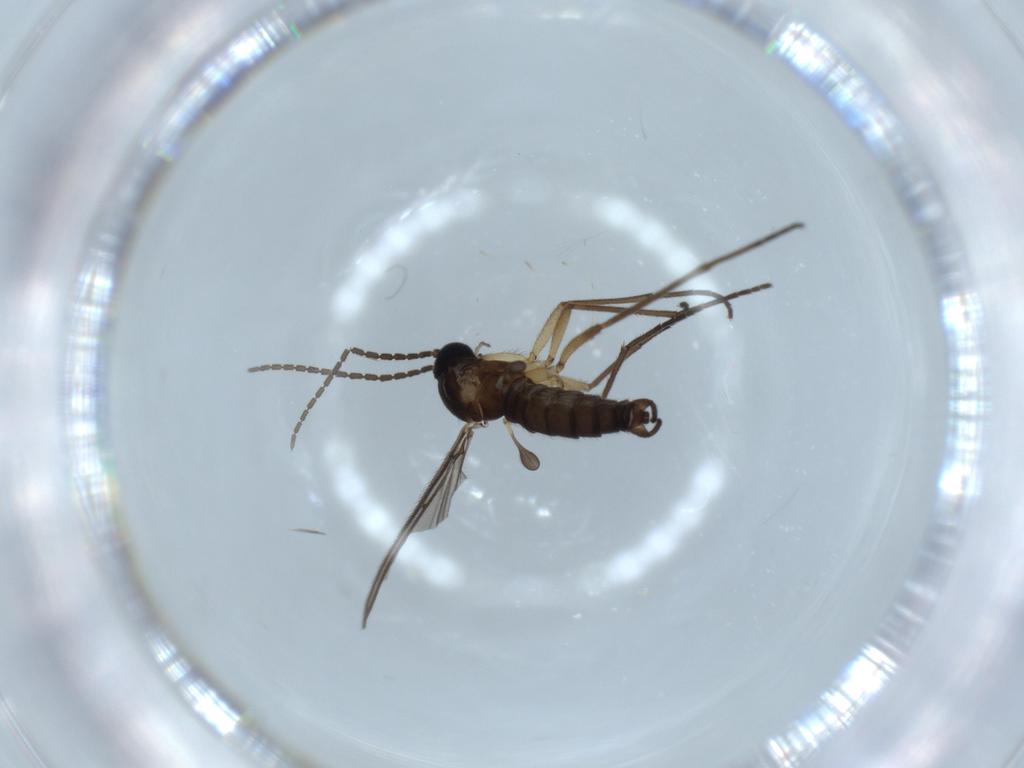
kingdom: Animalia
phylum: Arthropoda
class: Insecta
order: Diptera
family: Sciaridae
